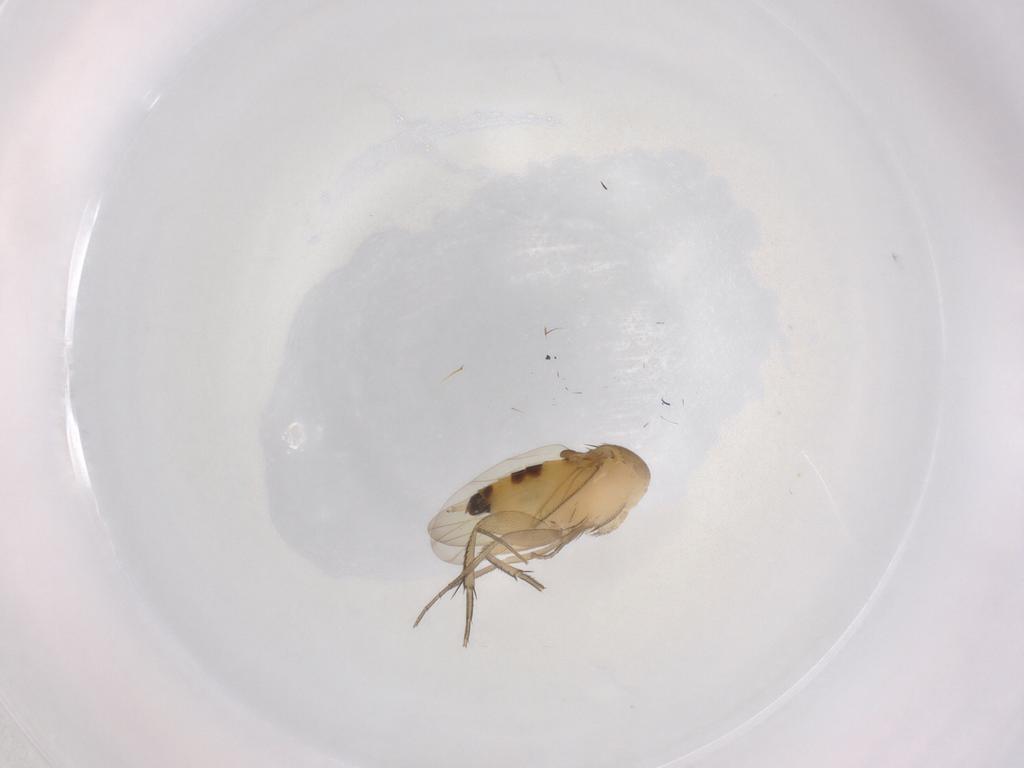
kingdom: Animalia
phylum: Arthropoda
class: Insecta
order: Diptera
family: Phoridae
